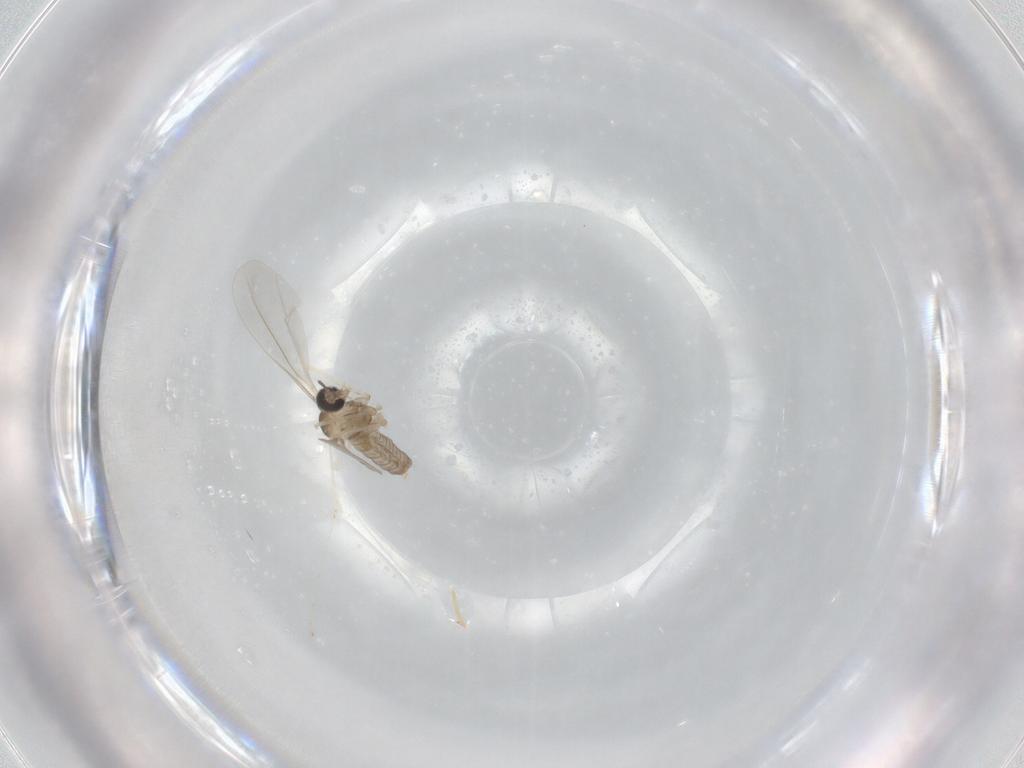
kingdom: Animalia
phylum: Arthropoda
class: Insecta
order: Diptera
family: Cecidomyiidae
